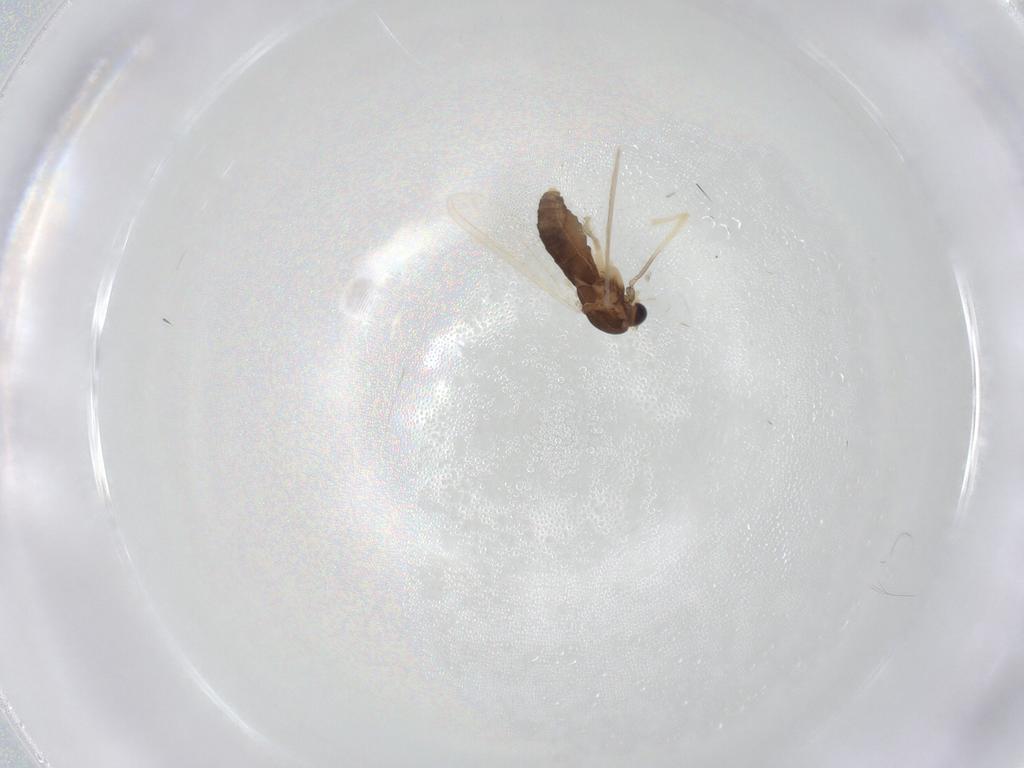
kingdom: Animalia
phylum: Arthropoda
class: Insecta
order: Diptera
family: Chironomidae
